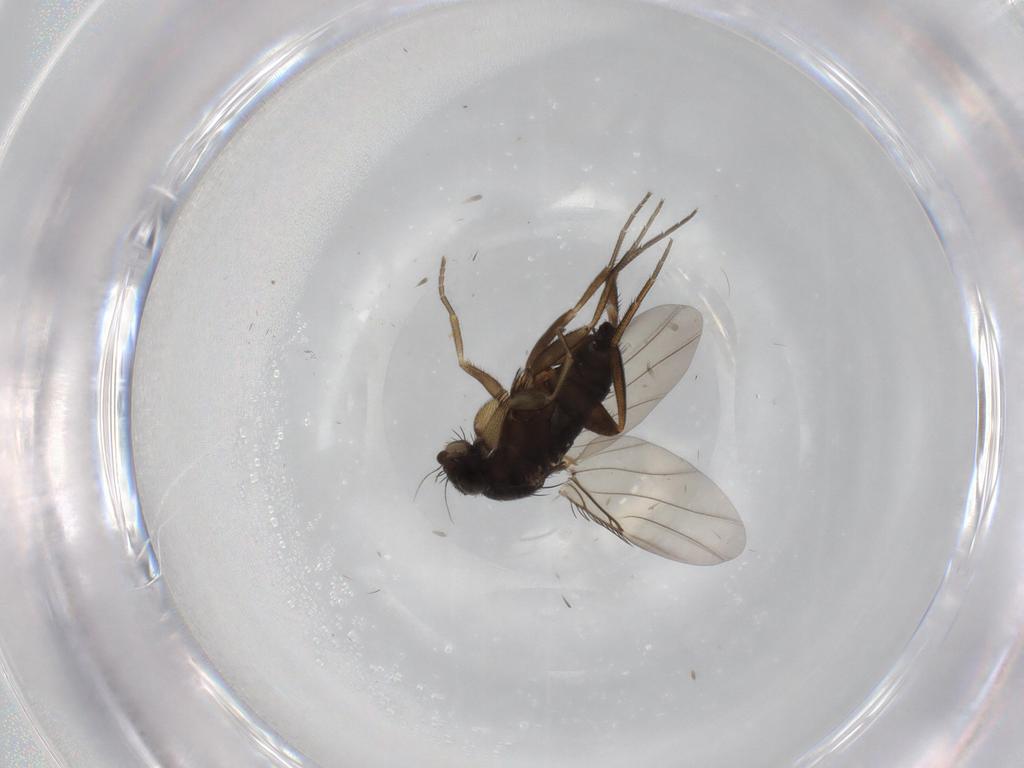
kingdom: Animalia
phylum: Arthropoda
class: Insecta
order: Diptera
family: Phoridae
